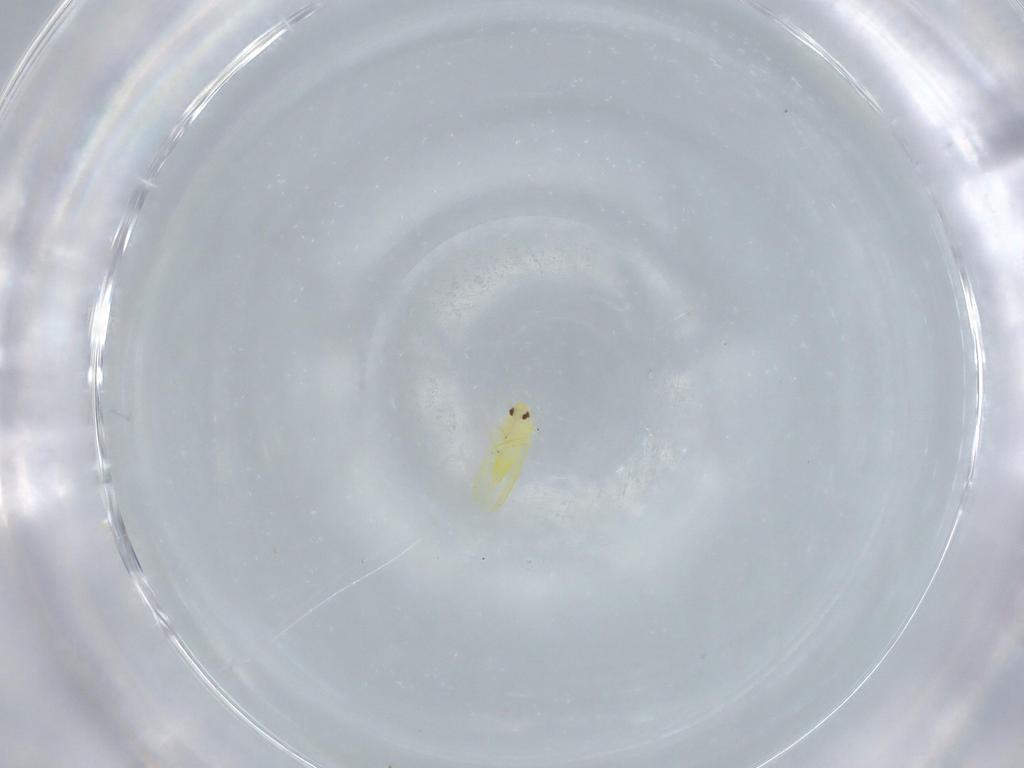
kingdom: Animalia
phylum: Arthropoda
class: Insecta
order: Hemiptera
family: Aleyrodidae
